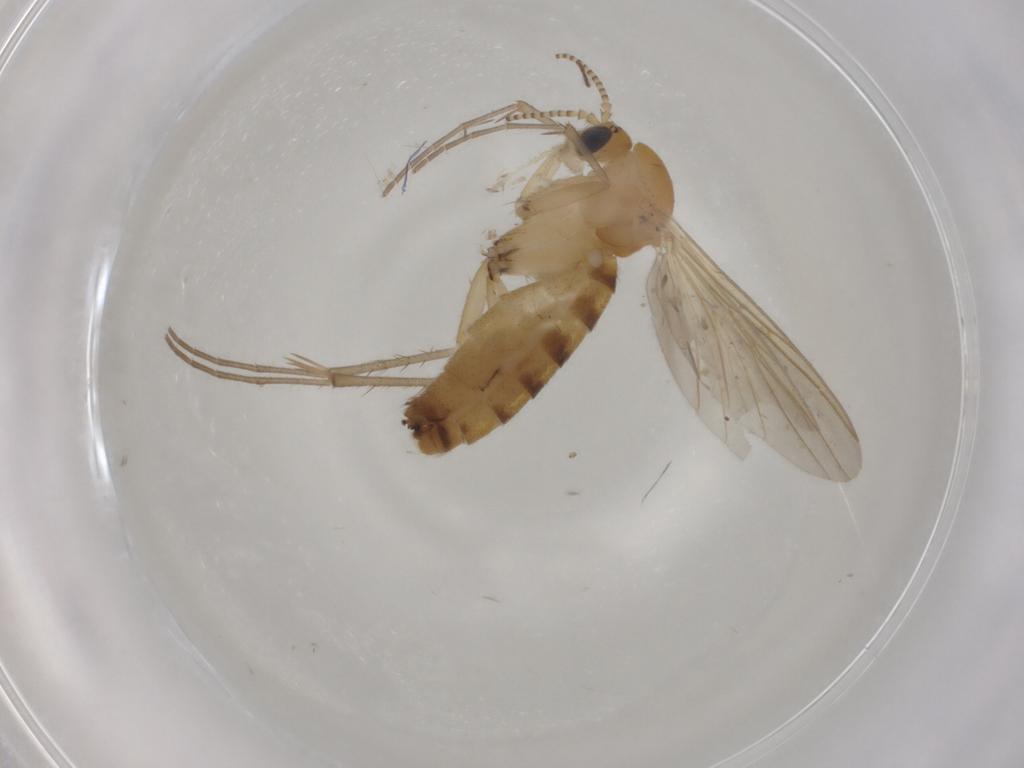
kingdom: Animalia
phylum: Arthropoda
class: Insecta
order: Diptera
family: Mycetophilidae
